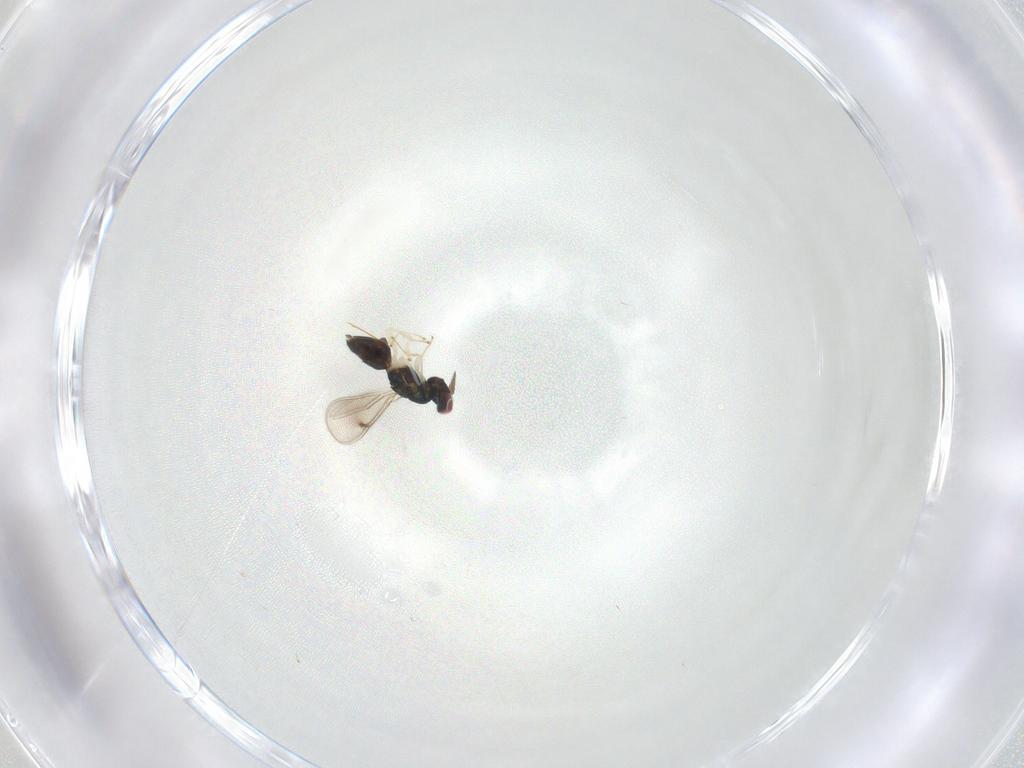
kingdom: Animalia
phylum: Arthropoda
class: Insecta
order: Hymenoptera
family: Eulophidae
